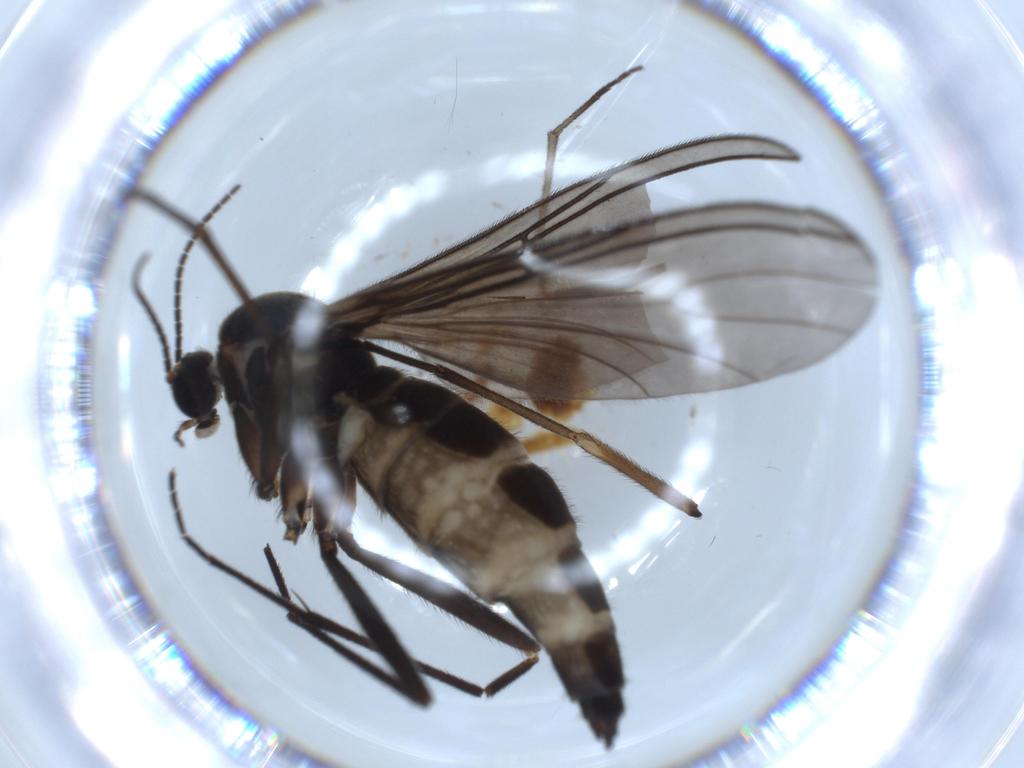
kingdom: Animalia
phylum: Arthropoda
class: Insecta
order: Diptera
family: Sciaridae
